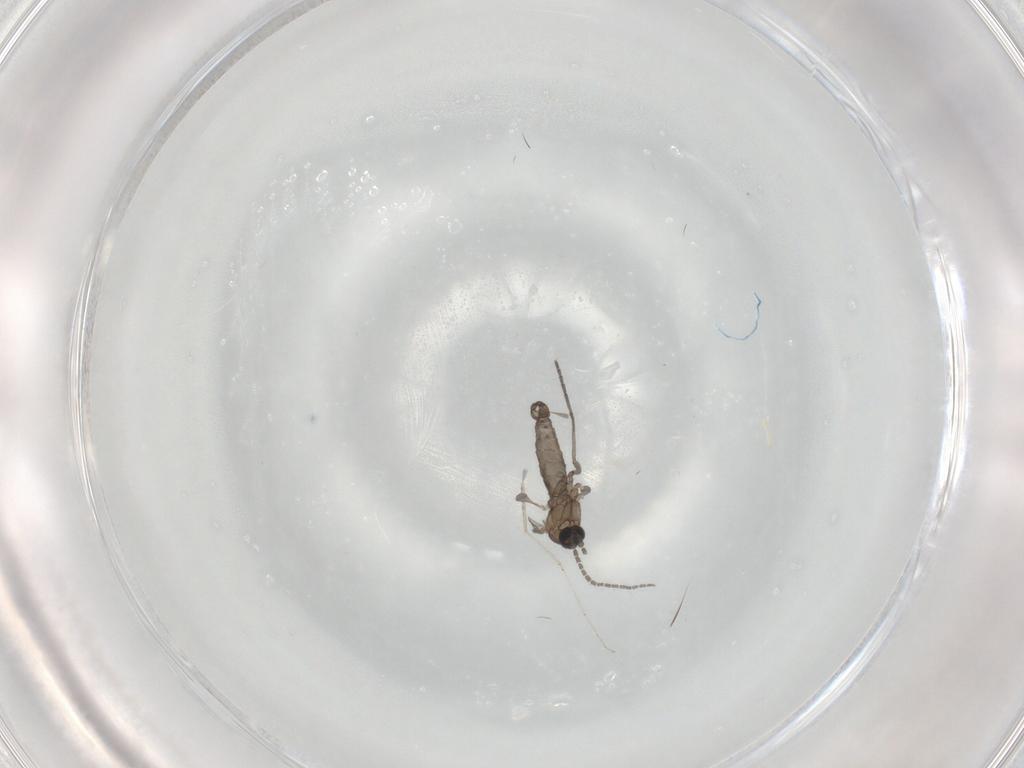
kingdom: Animalia
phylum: Arthropoda
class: Insecta
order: Diptera
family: Sciaridae
